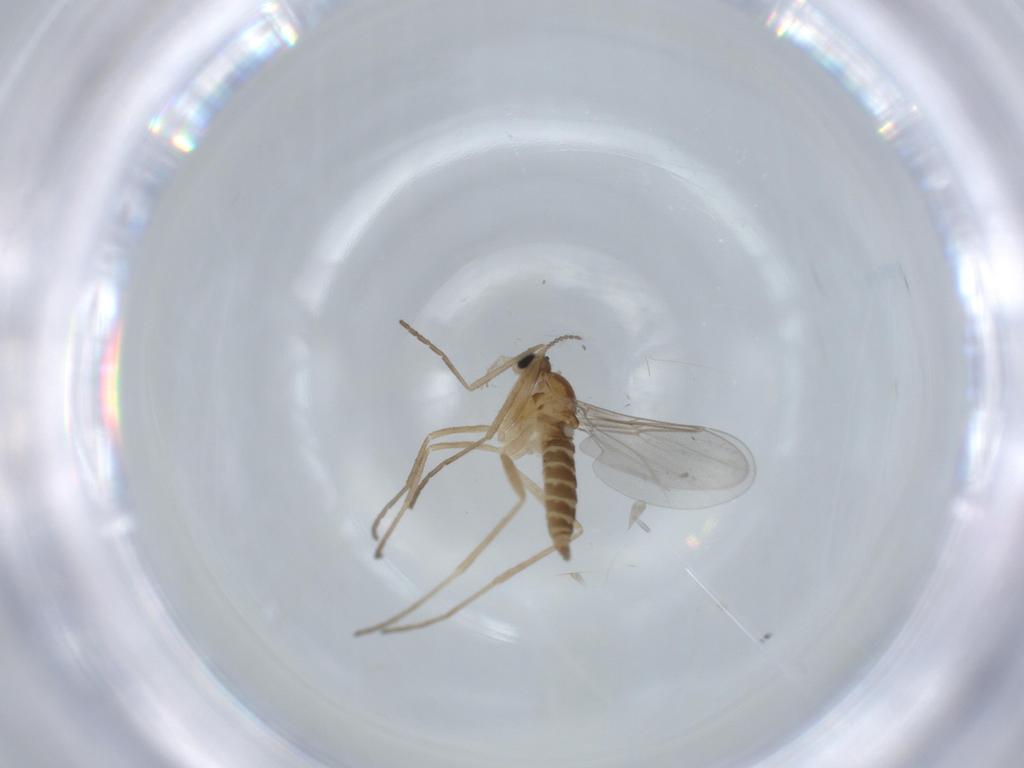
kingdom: Animalia
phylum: Arthropoda
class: Insecta
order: Diptera
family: Cecidomyiidae
